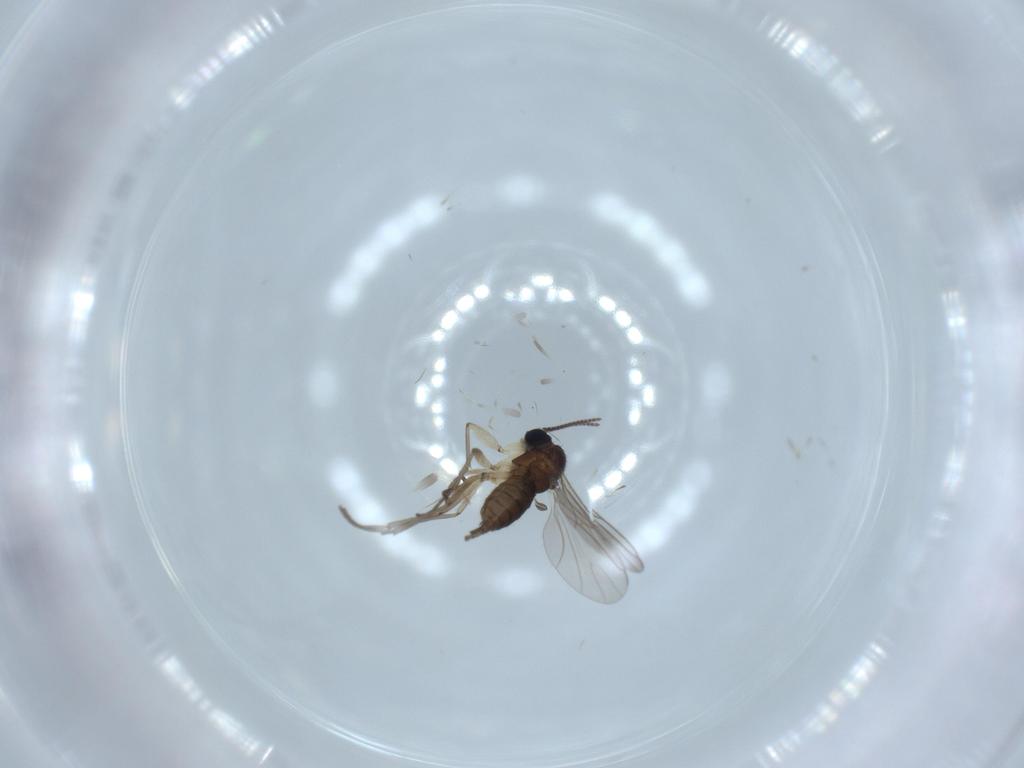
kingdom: Animalia
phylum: Arthropoda
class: Insecta
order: Diptera
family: Sciaridae
